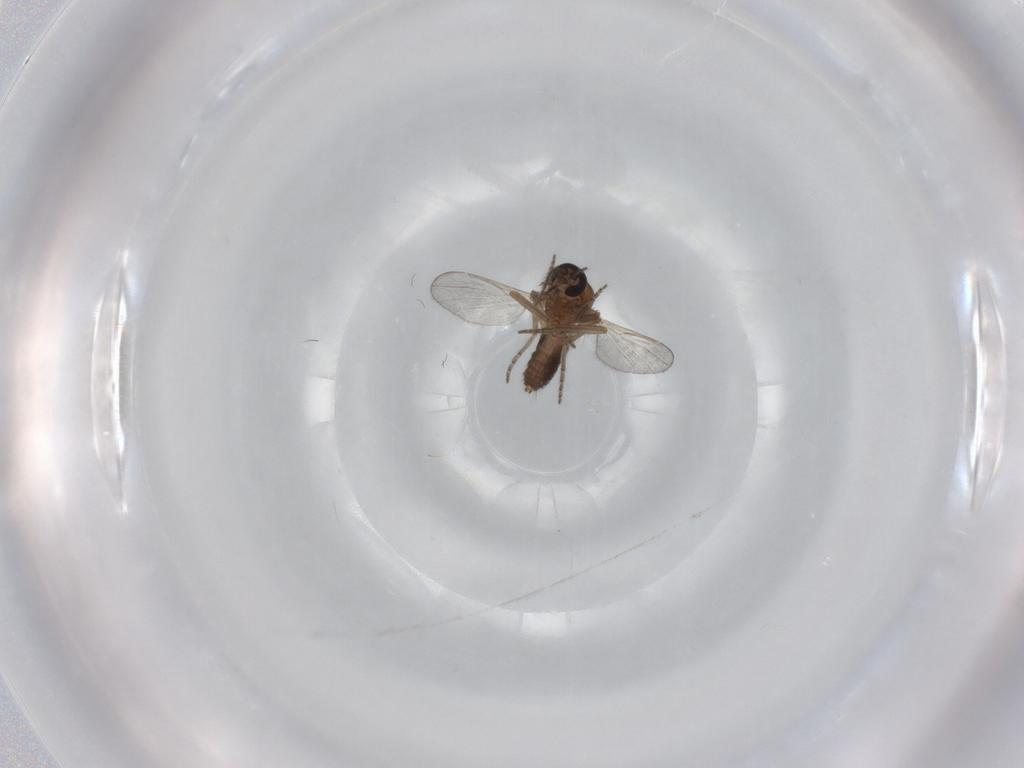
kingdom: Animalia
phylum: Arthropoda
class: Insecta
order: Diptera
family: Ceratopogonidae
